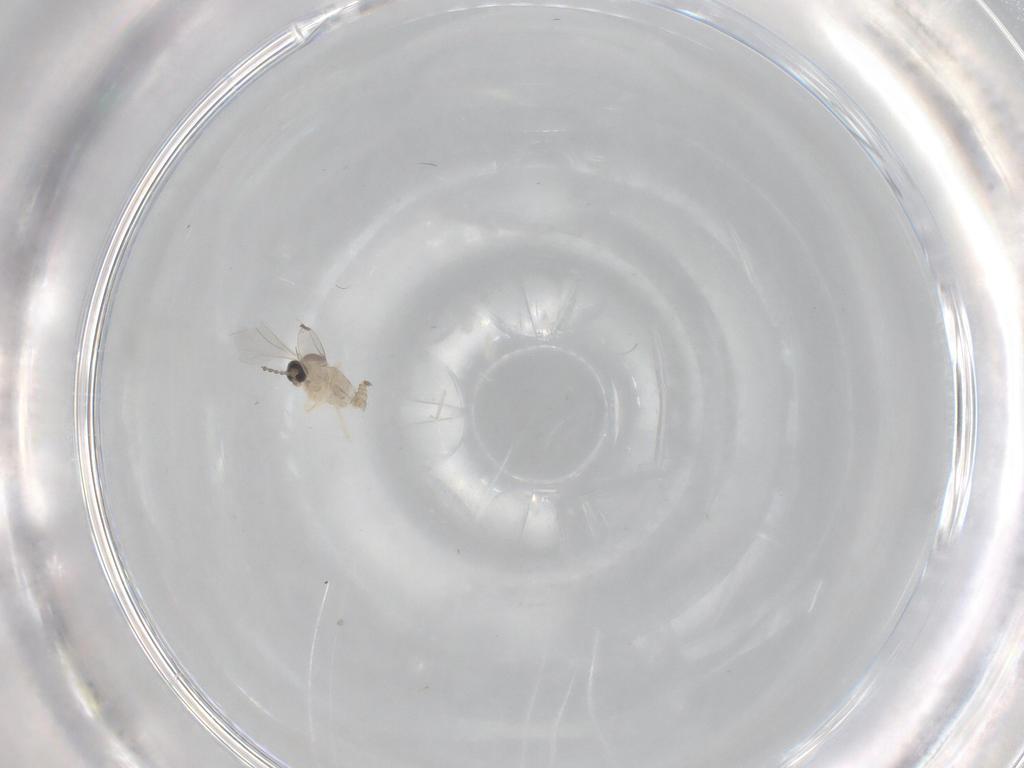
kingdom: Animalia
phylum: Arthropoda
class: Insecta
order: Diptera
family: Cecidomyiidae
